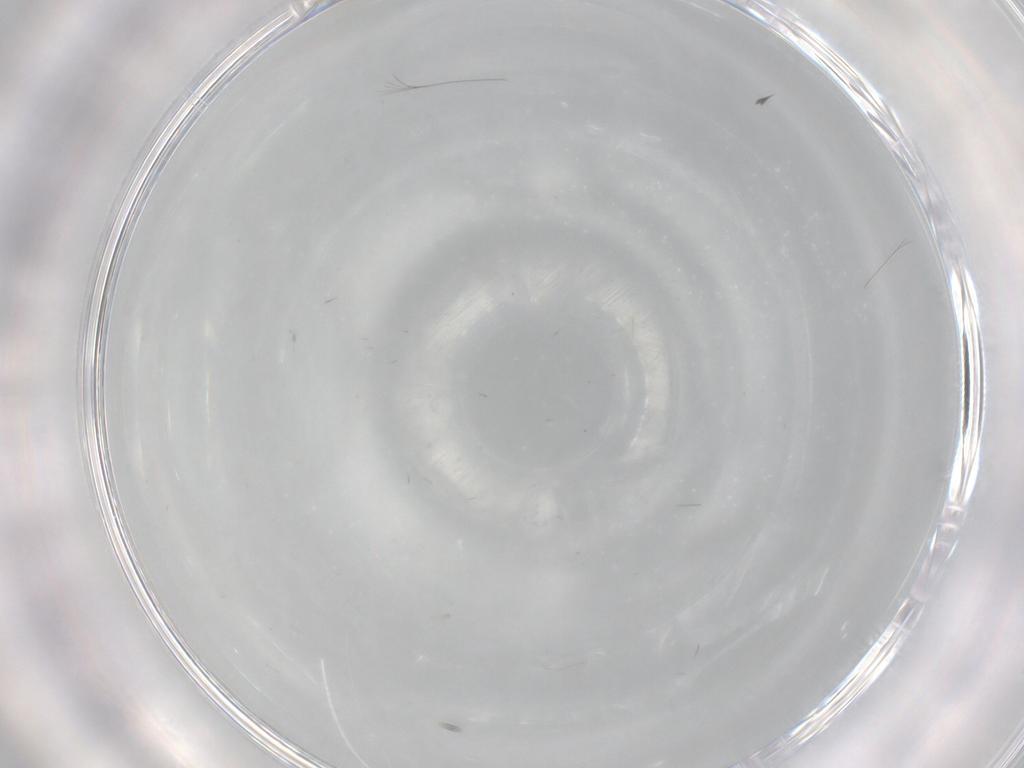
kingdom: Animalia
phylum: Arthropoda
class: Insecta
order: Diptera
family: Cecidomyiidae
